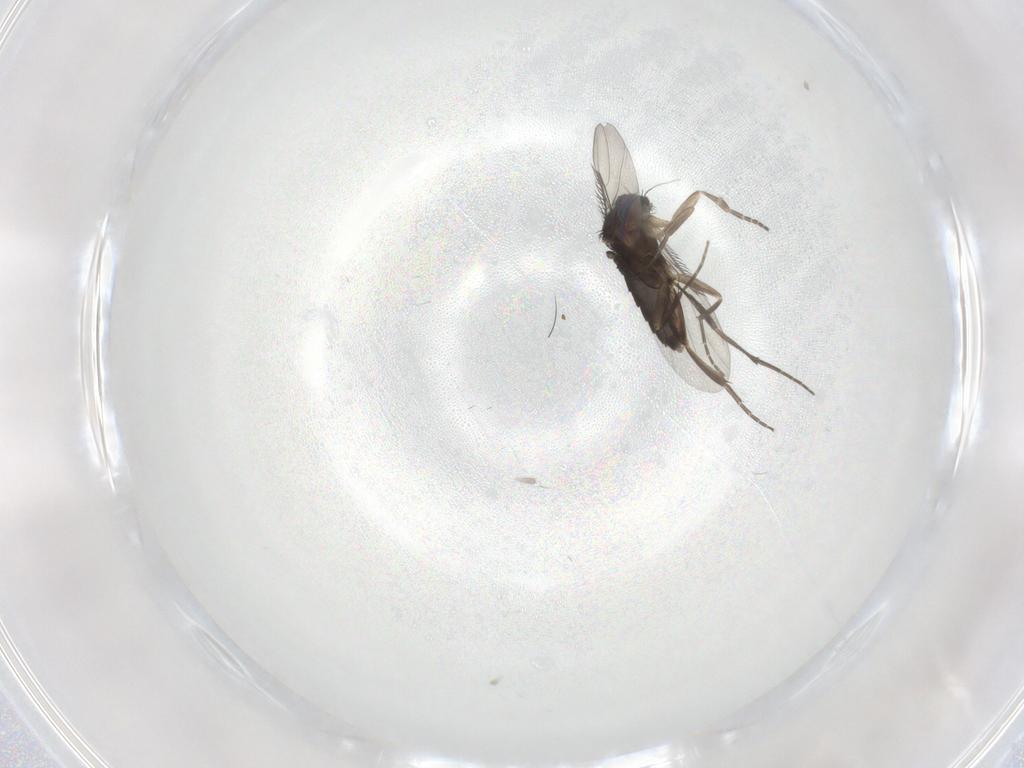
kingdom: Animalia
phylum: Arthropoda
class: Insecta
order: Diptera
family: Phoridae
